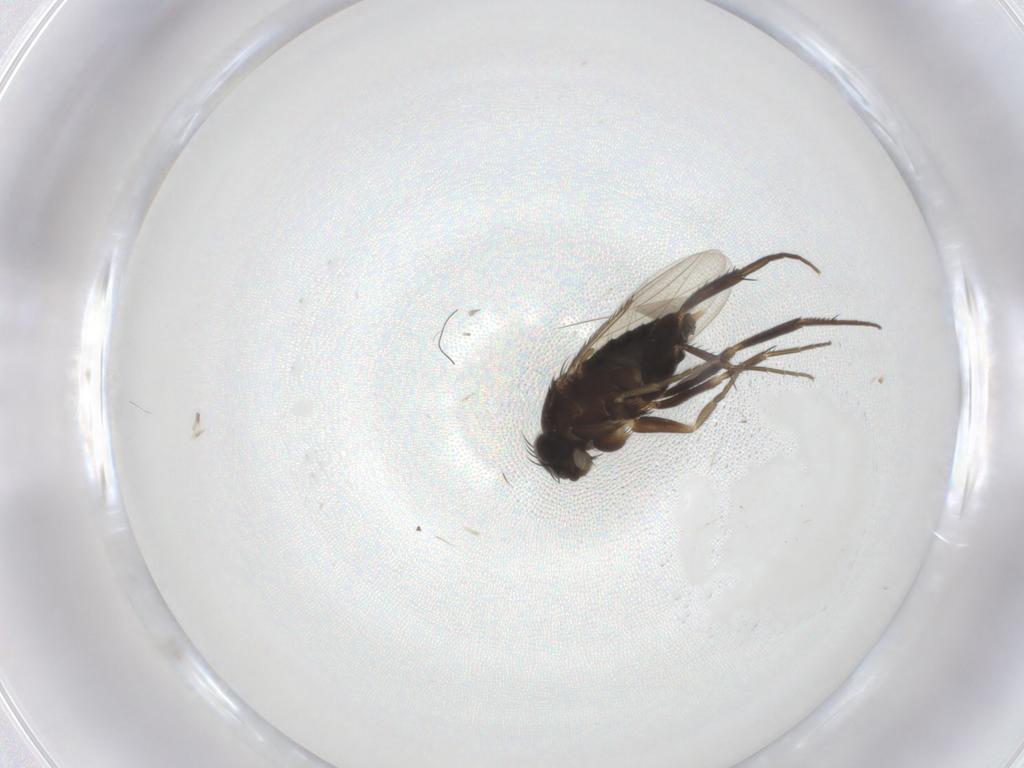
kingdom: Animalia
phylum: Arthropoda
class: Insecta
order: Diptera
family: Phoridae
